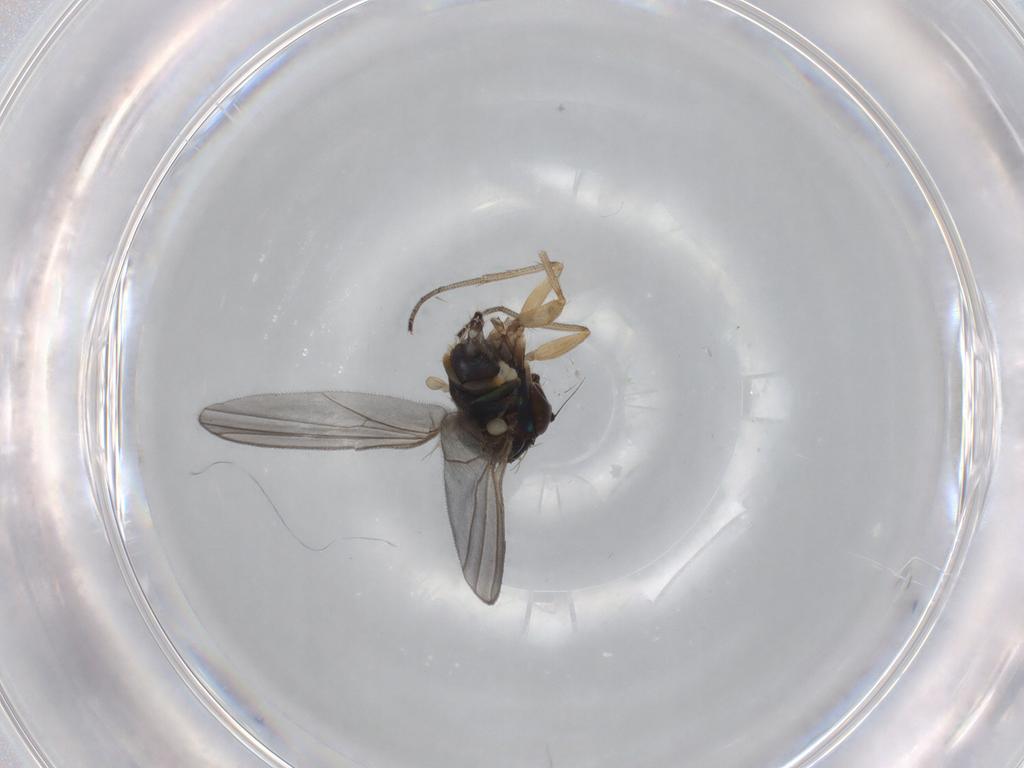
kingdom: Animalia
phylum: Arthropoda
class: Insecta
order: Diptera
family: Dolichopodidae
